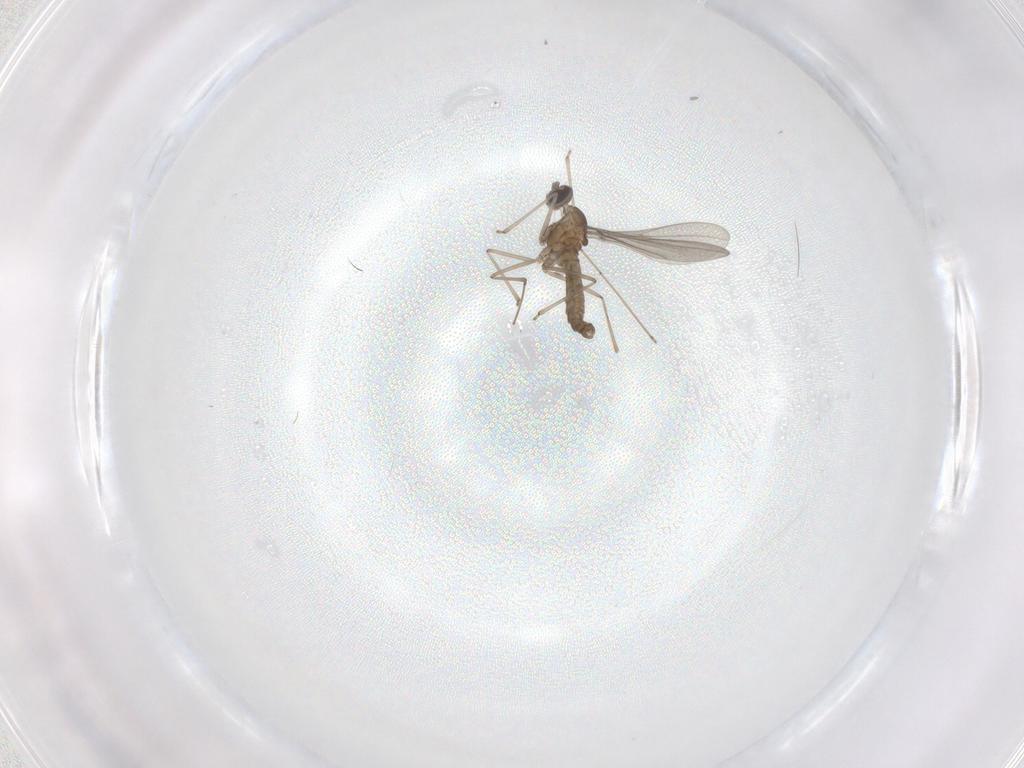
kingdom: Animalia
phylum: Arthropoda
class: Insecta
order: Diptera
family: Phoridae
